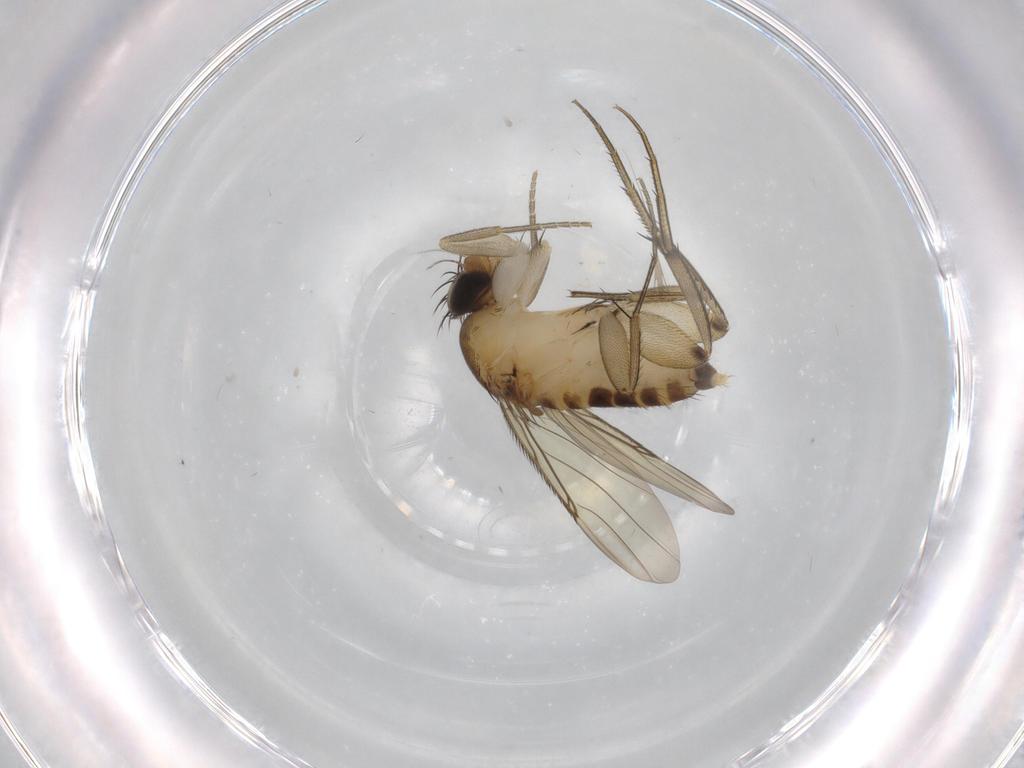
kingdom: Animalia
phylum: Arthropoda
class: Insecta
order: Diptera
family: Phoridae
